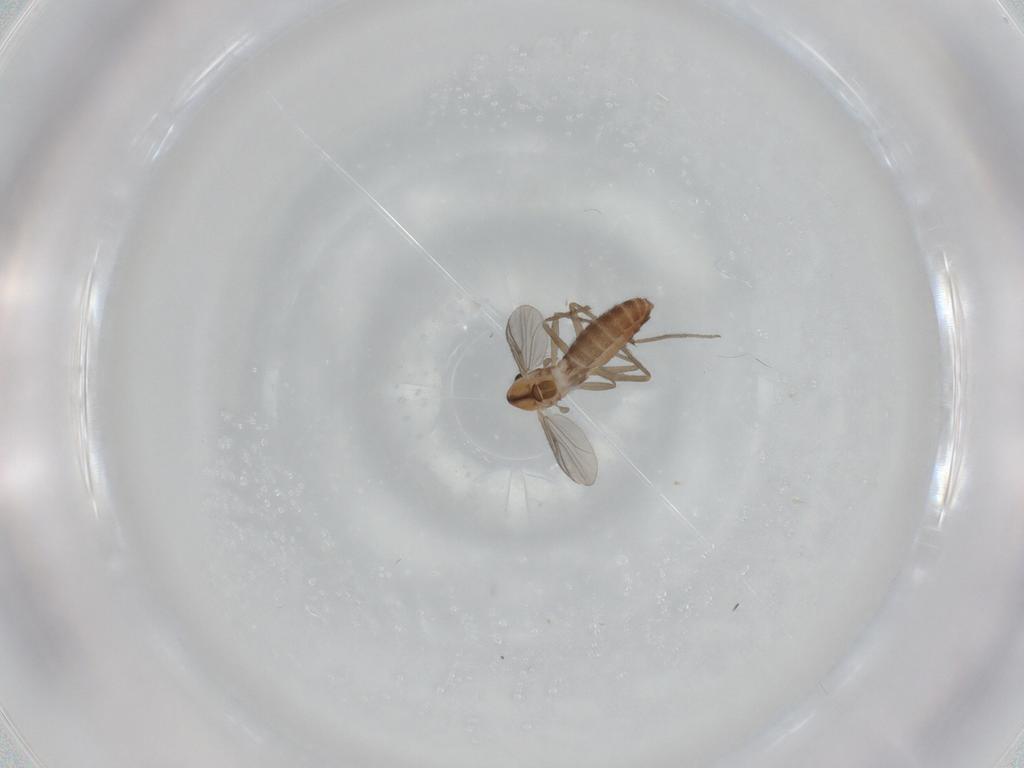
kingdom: Animalia
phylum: Arthropoda
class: Insecta
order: Diptera
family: Chironomidae
